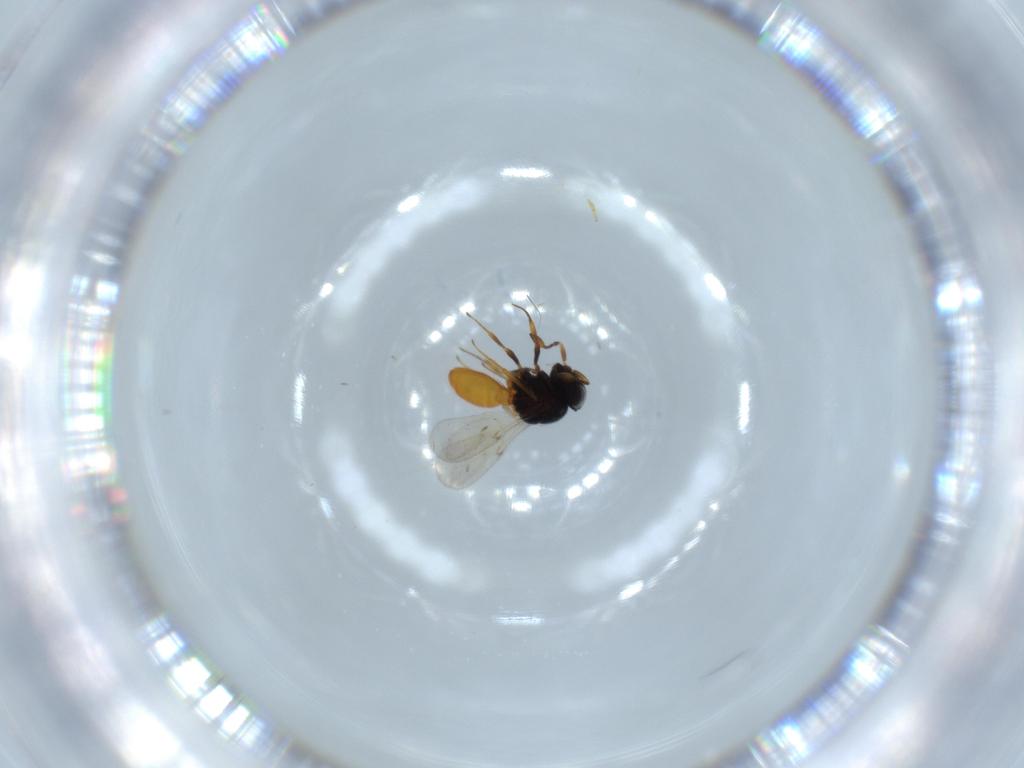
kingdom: Animalia
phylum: Arthropoda
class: Insecta
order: Hymenoptera
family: Scelionidae
